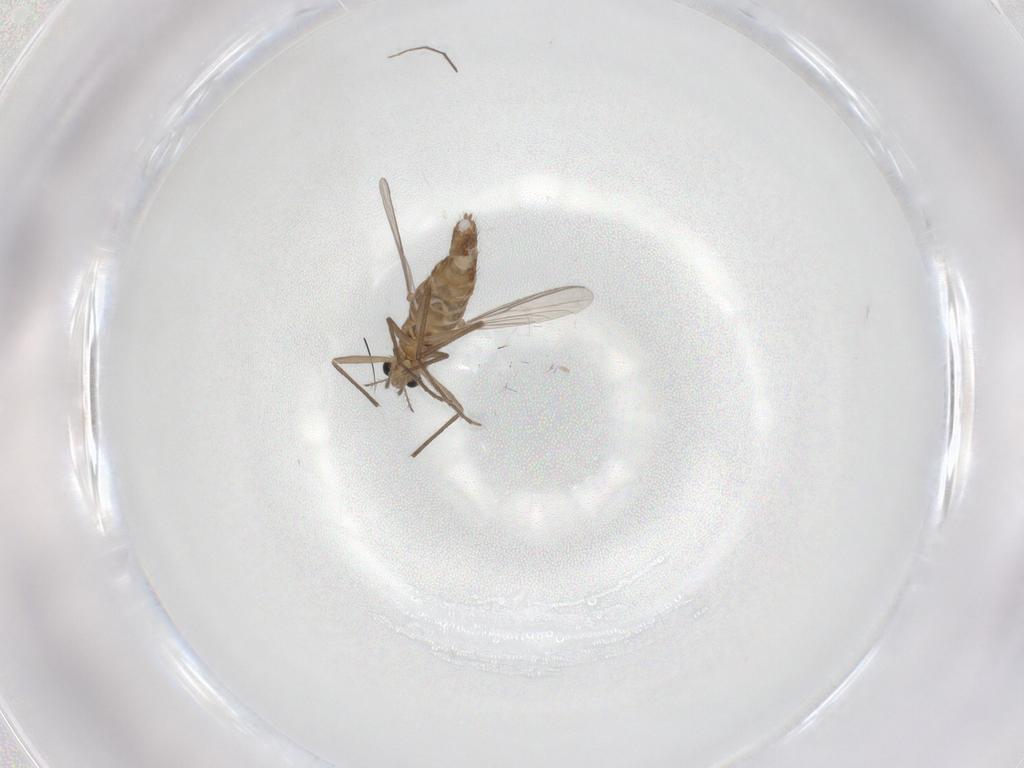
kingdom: Animalia
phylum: Arthropoda
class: Insecta
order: Diptera
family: Chironomidae
